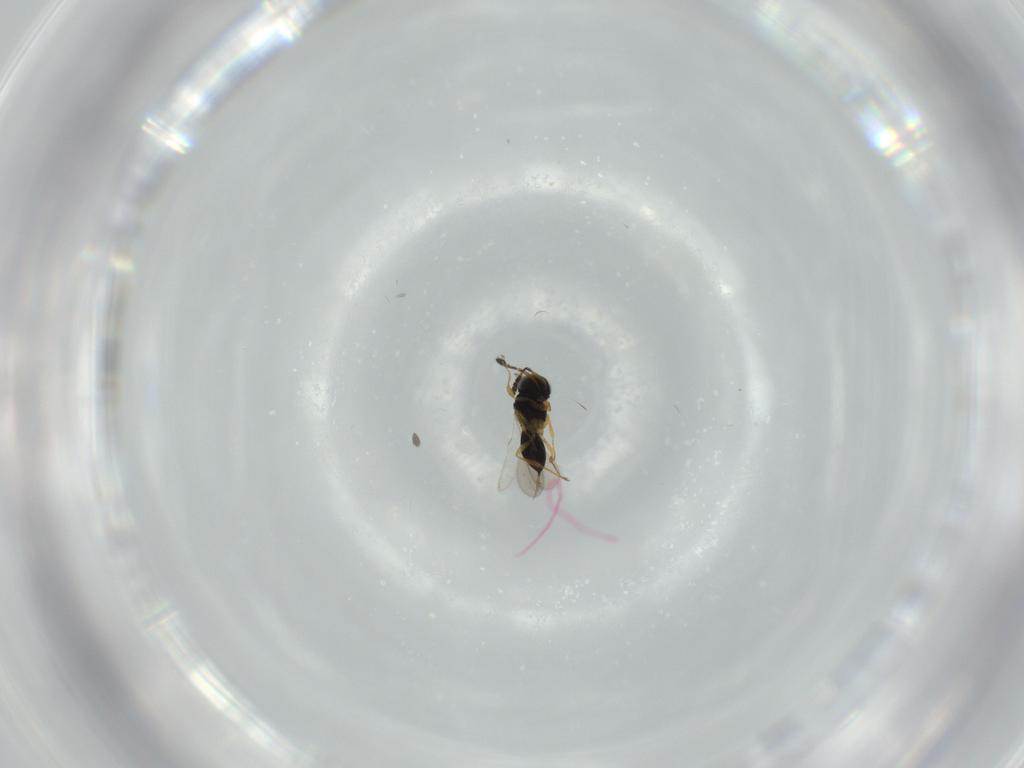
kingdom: Animalia
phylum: Arthropoda
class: Insecta
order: Hymenoptera
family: Scelionidae
